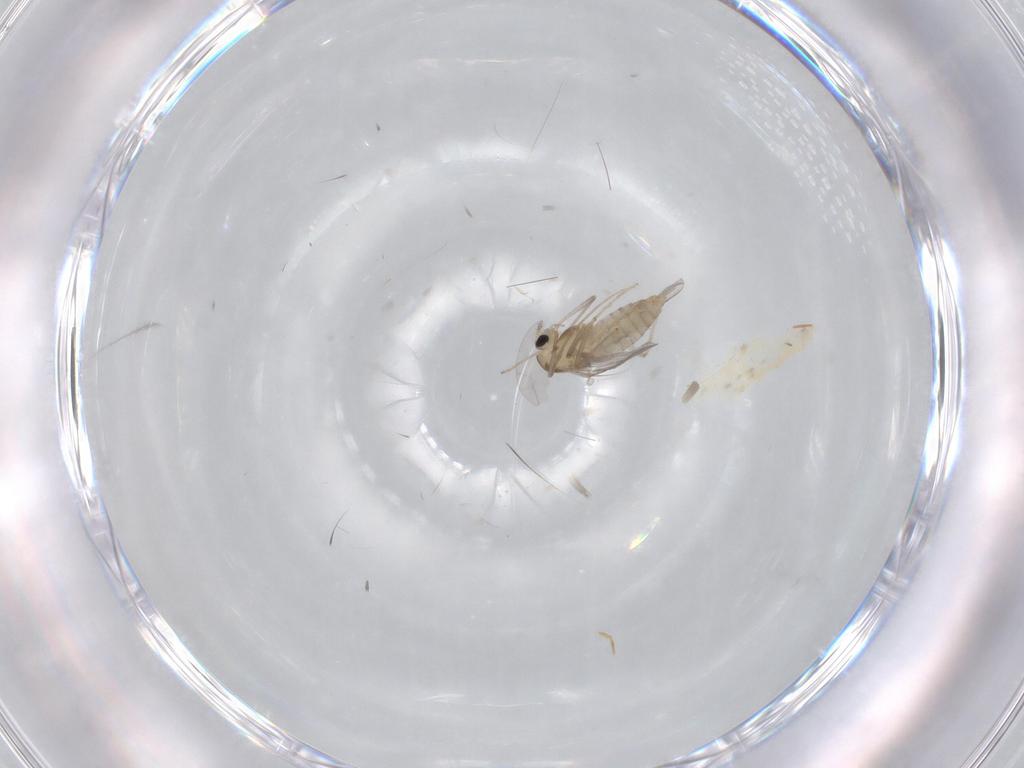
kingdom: Animalia
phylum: Arthropoda
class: Insecta
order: Diptera
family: Chironomidae
